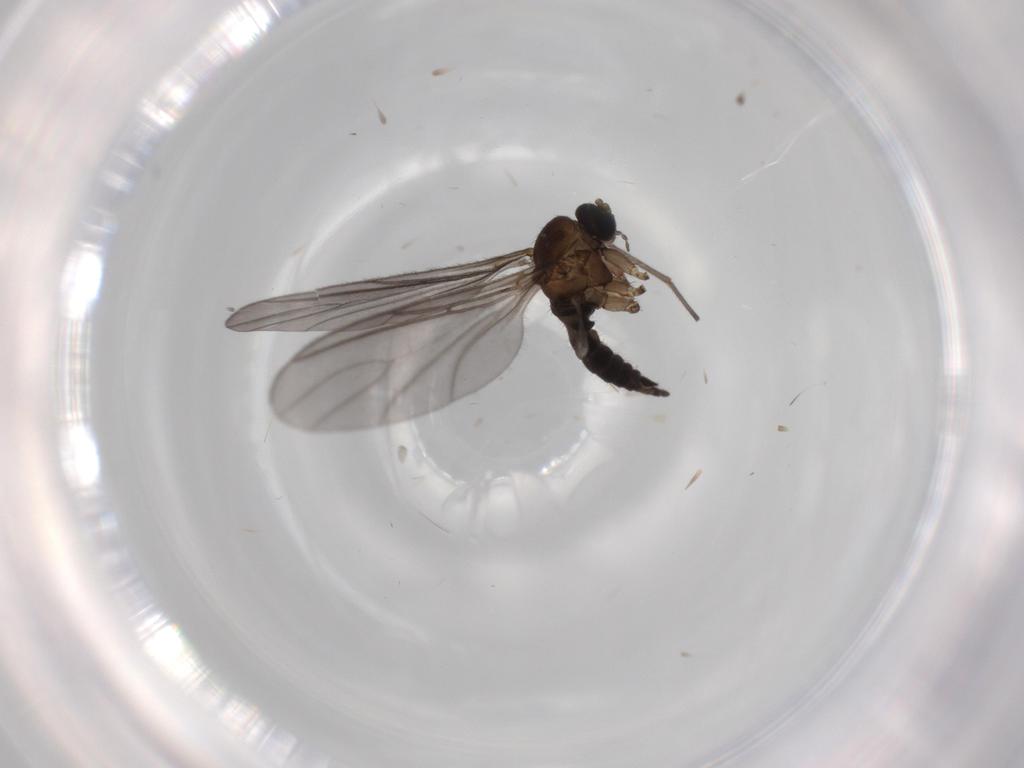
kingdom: Animalia
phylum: Arthropoda
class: Insecta
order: Diptera
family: Sciaridae
